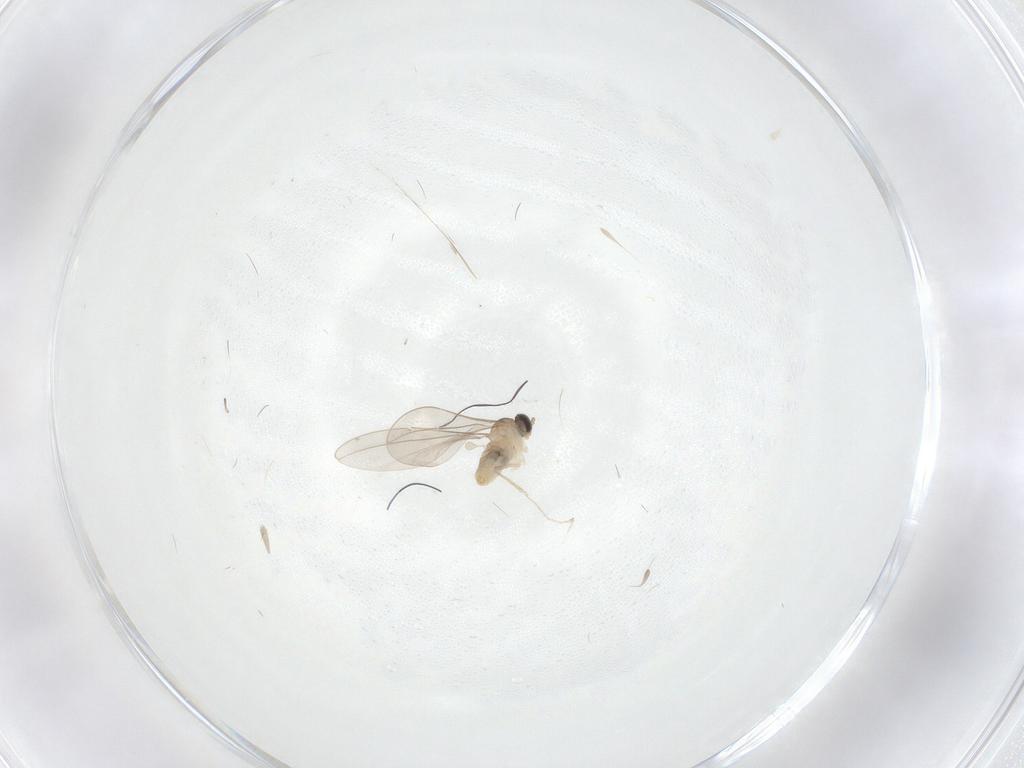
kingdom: Animalia
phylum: Arthropoda
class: Insecta
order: Diptera
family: Cecidomyiidae
